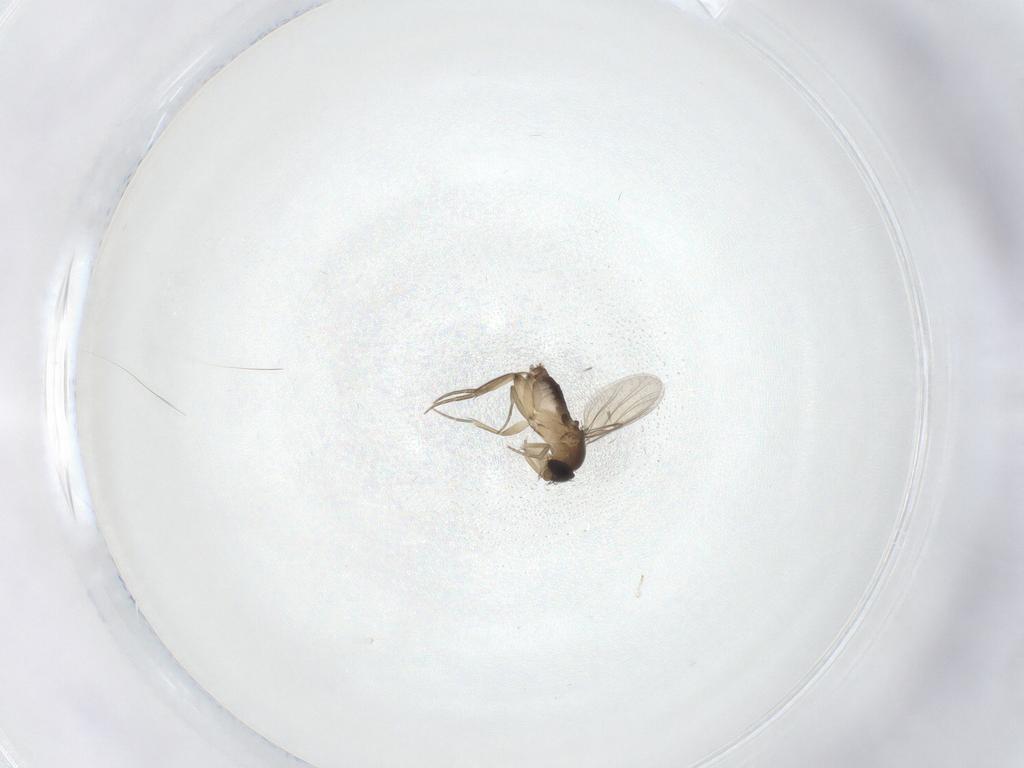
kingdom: Animalia
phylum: Arthropoda
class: Insecta
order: Diptera
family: Phoridae
